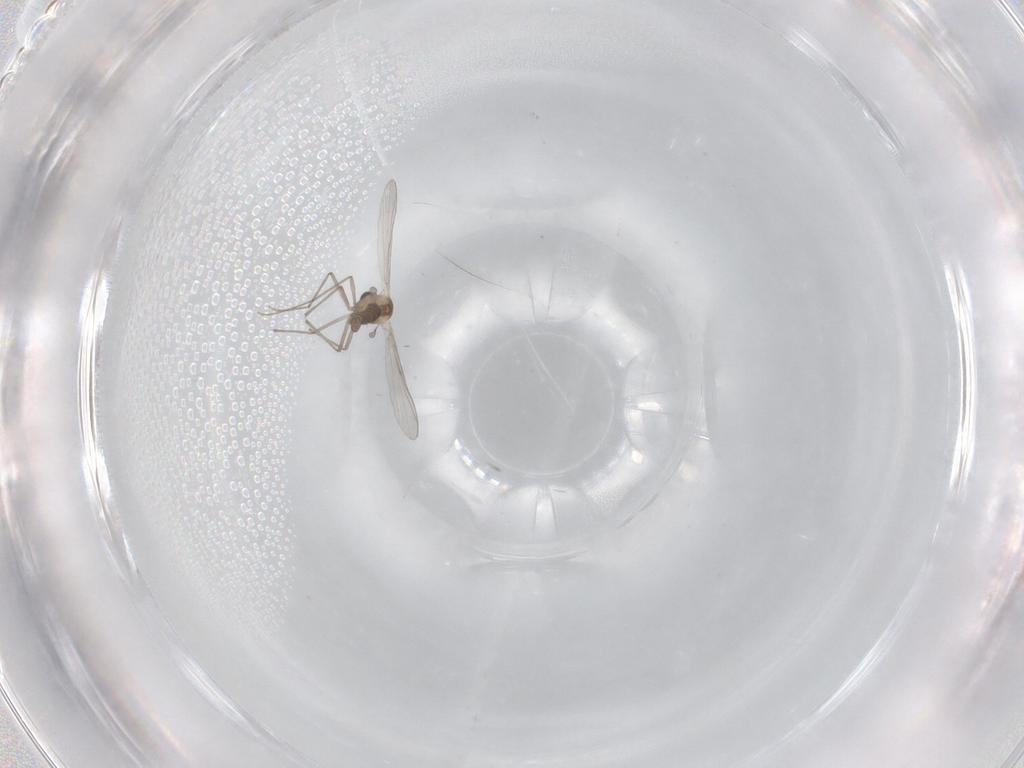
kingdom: Animalia
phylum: Arthropoda
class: Insecta
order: Diptera
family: Chironomidae
